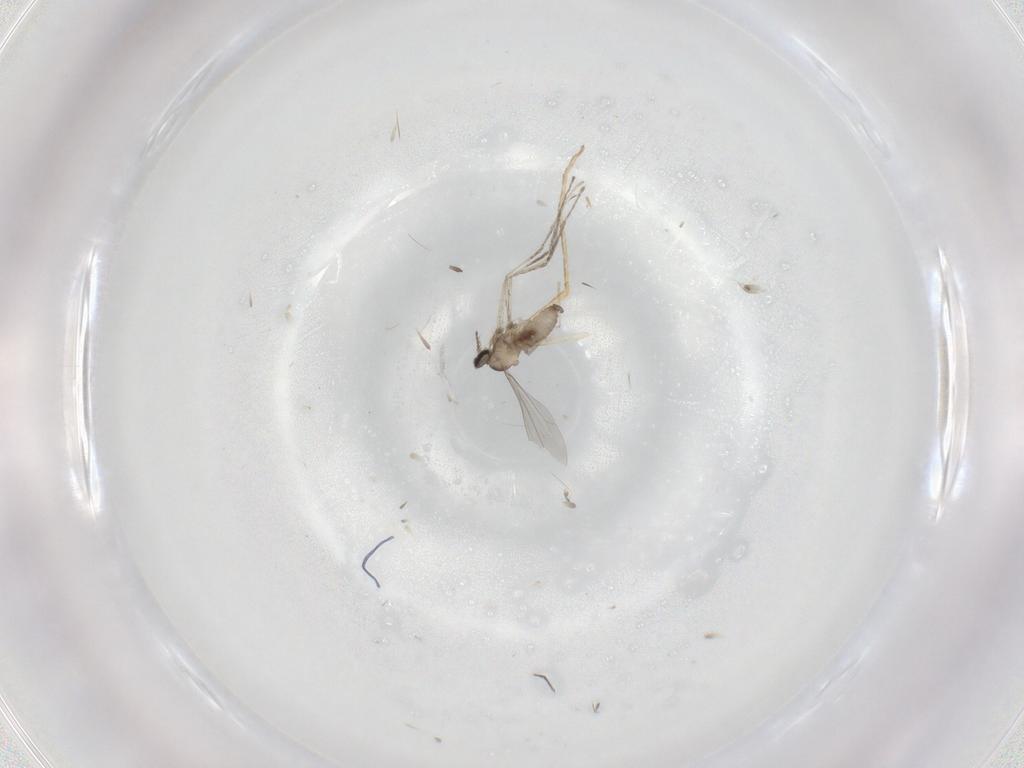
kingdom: Animalia
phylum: Arthropoda
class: Insecta
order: Diptera
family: Cecidomyiidae
